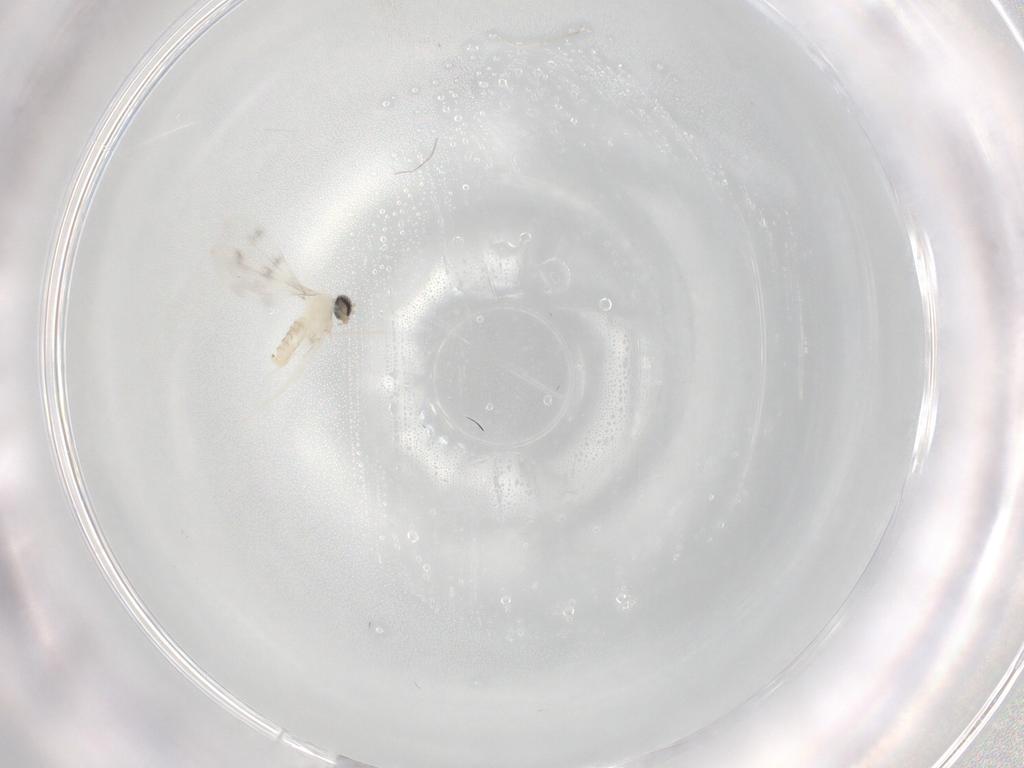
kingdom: Animalia
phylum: Arthropoda
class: Insecta
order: Diptera
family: Cecidomyiidae
